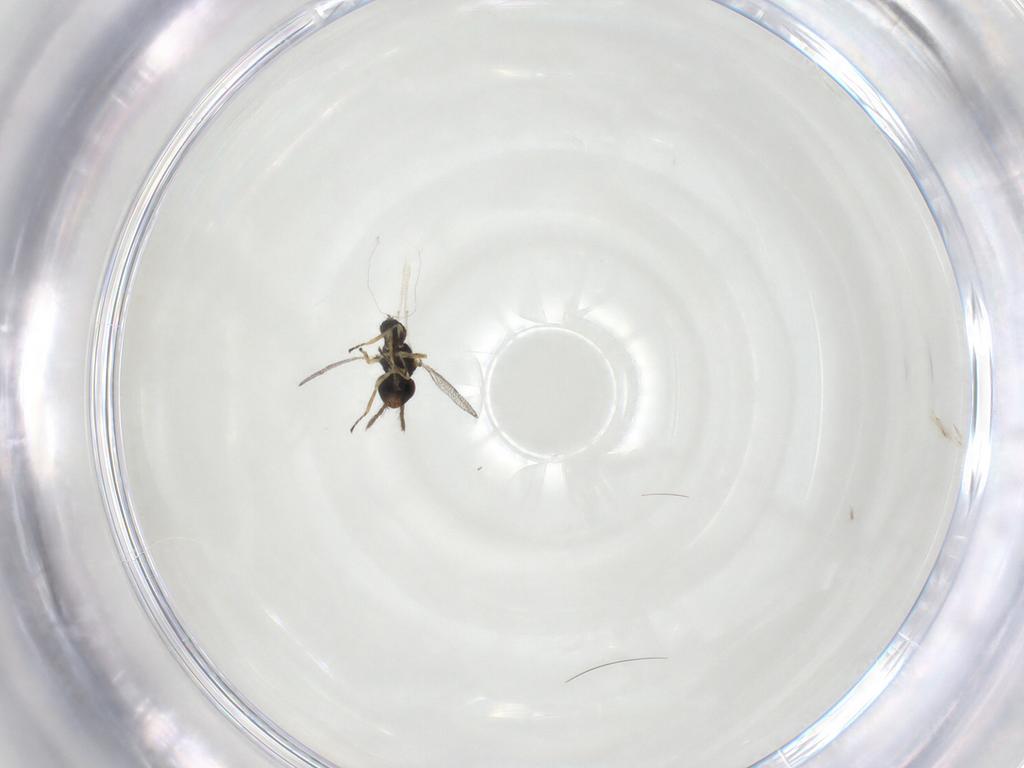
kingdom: Animalia
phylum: Arthropoda
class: Insecta
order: Hymenoptera
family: Eulophidae
